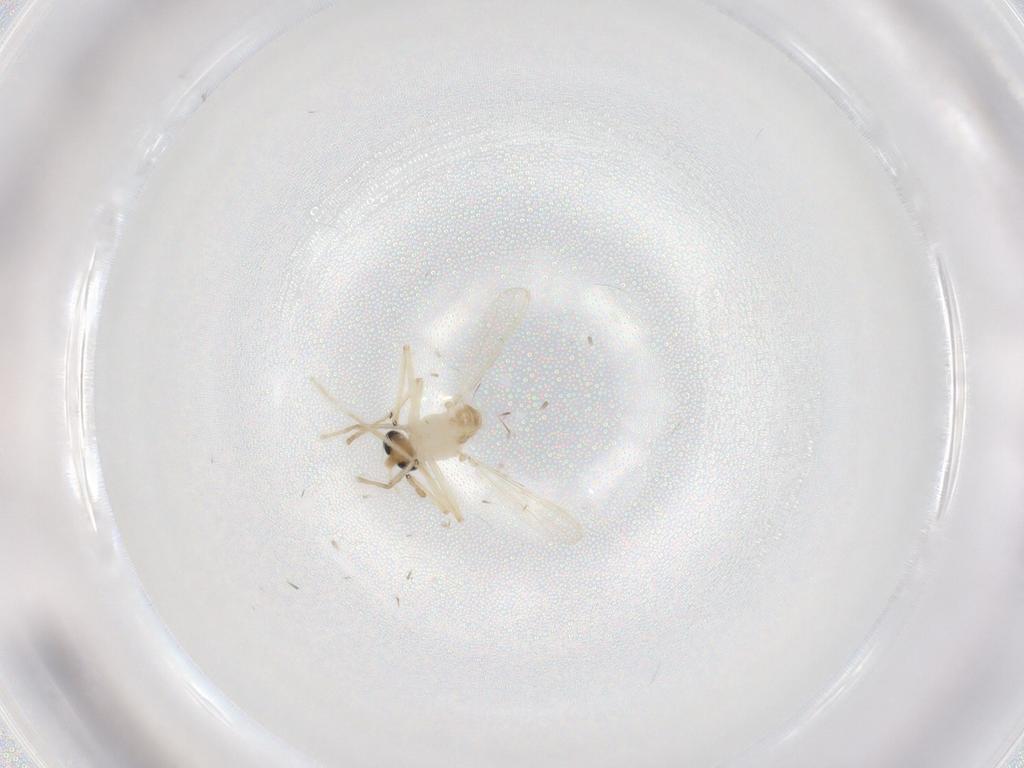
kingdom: Animalia
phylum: Arthropoda
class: Insecta
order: Diptera
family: Chironomidae
